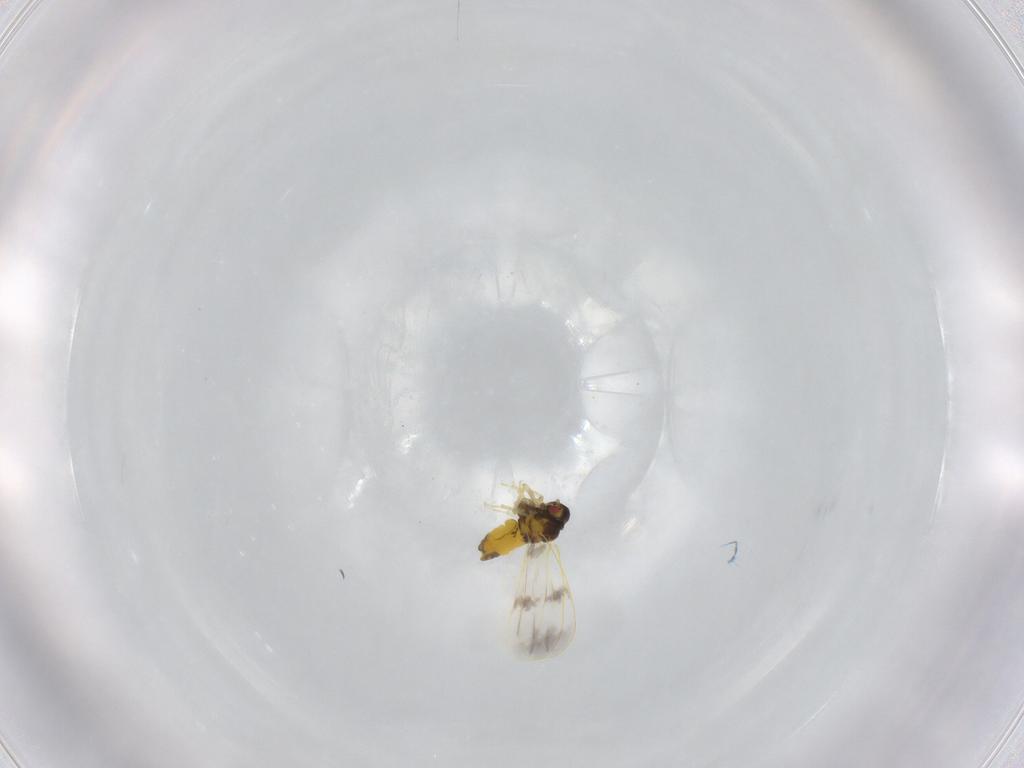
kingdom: Animalia
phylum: Arthropoda
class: Insecta
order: Hemiptera
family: Aleyrodidae
